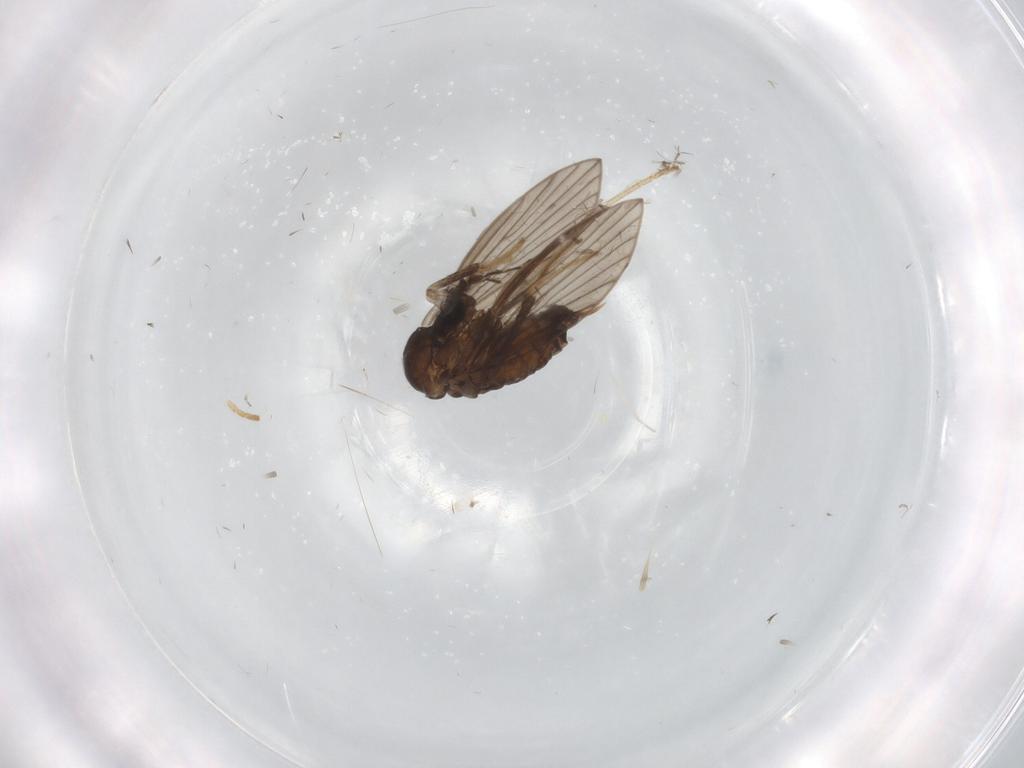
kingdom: Animalia
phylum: Arthropoda
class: Insecta
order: Diptera
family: Psychodidae
